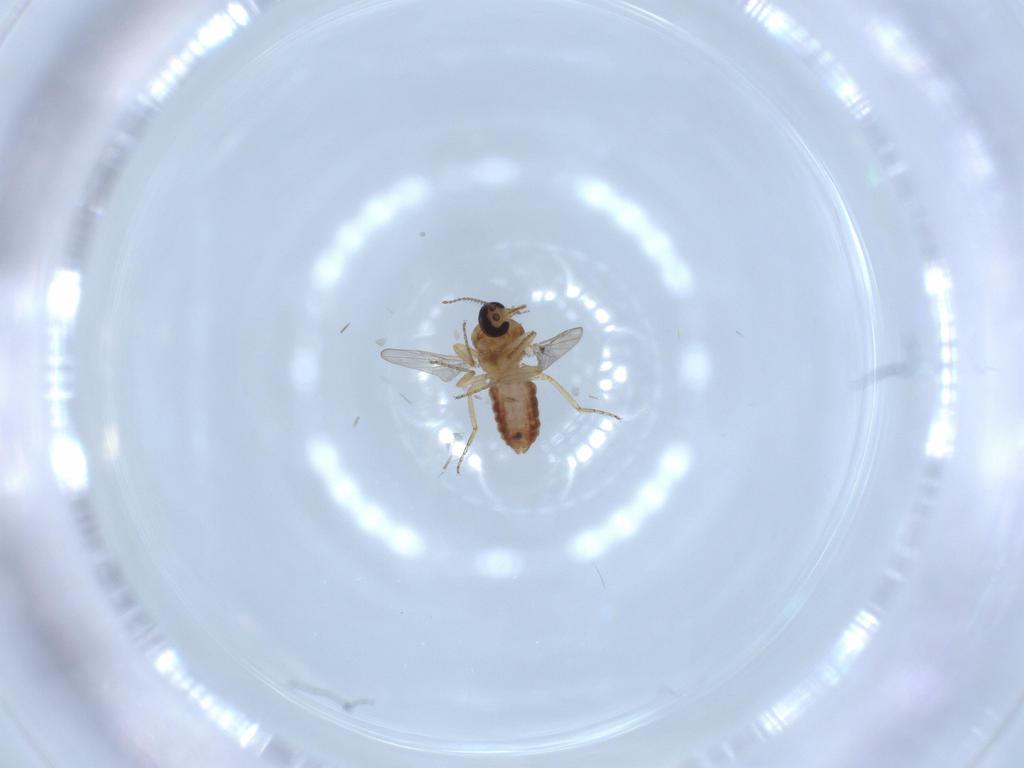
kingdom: Animalia
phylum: Arthropoda
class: Insecta
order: Diptera
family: Ceratopogonidae
